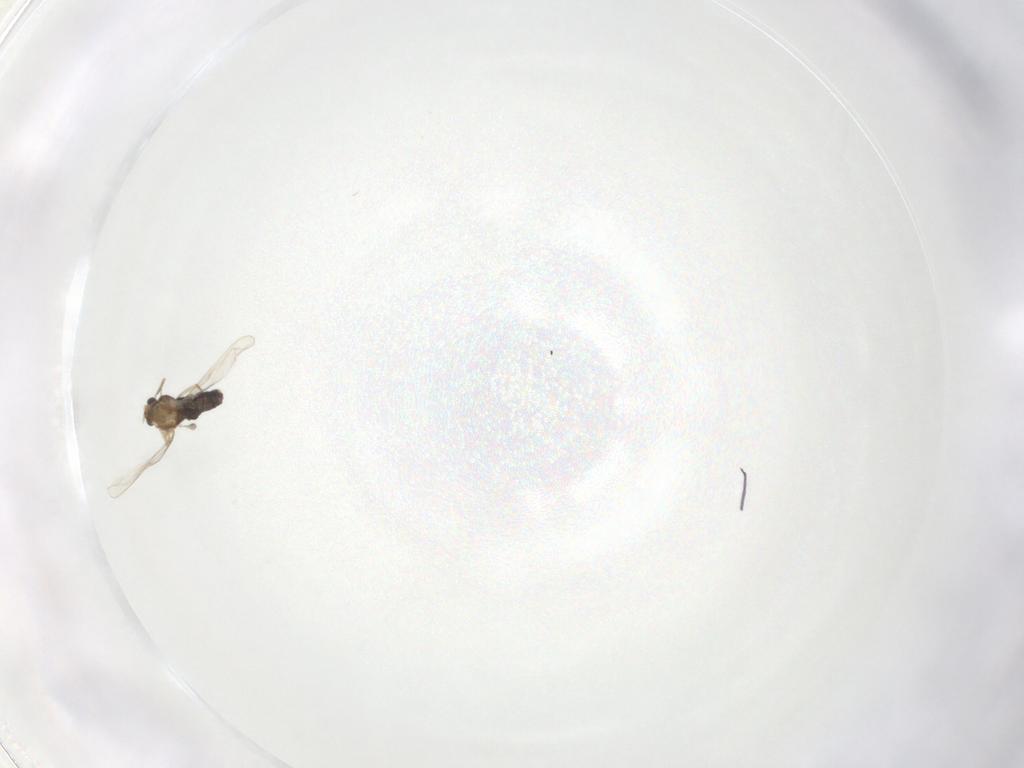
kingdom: Animalia
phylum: Arthropoda
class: Insecta
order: Diptera
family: Chironomidae
